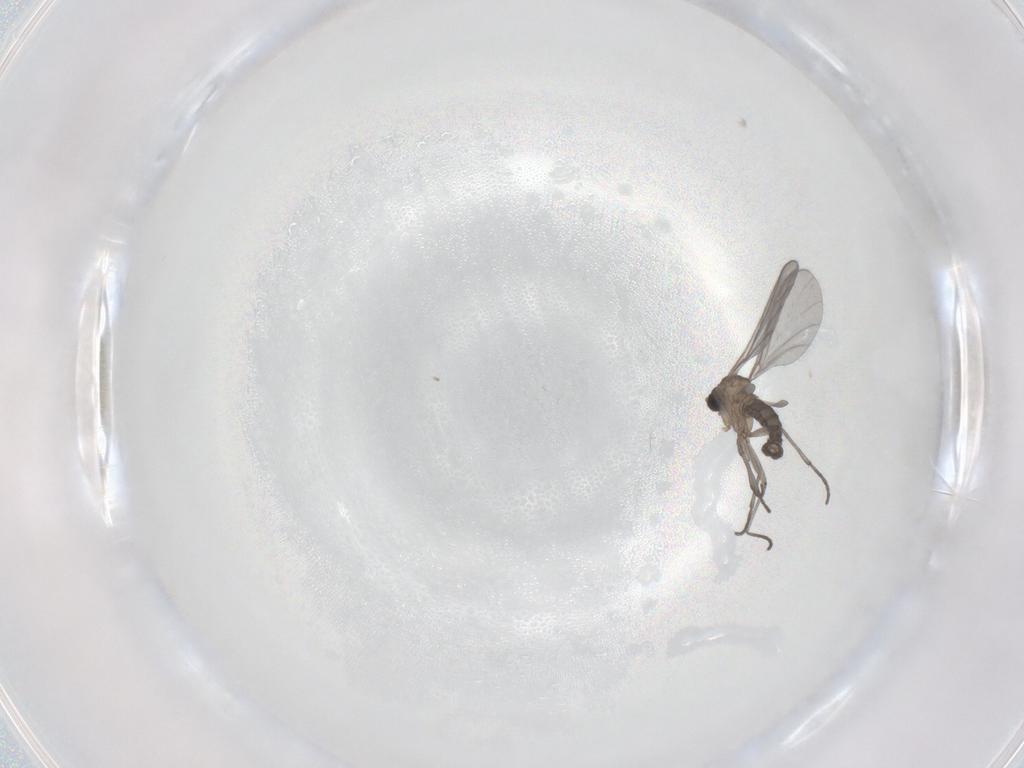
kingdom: Animalia
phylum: Arthropoda
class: Insecta
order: Diptera
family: Sciaridae
